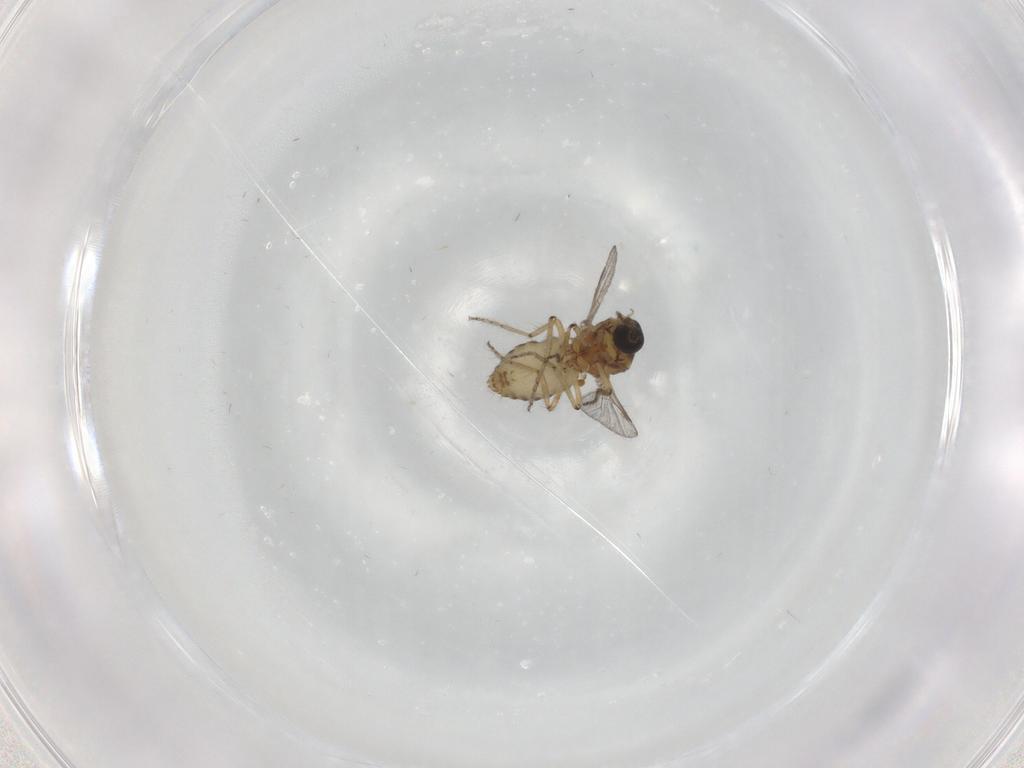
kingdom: Animalia
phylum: Arthropoda
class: Insecta
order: Diptera
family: Ceratopogonidae
